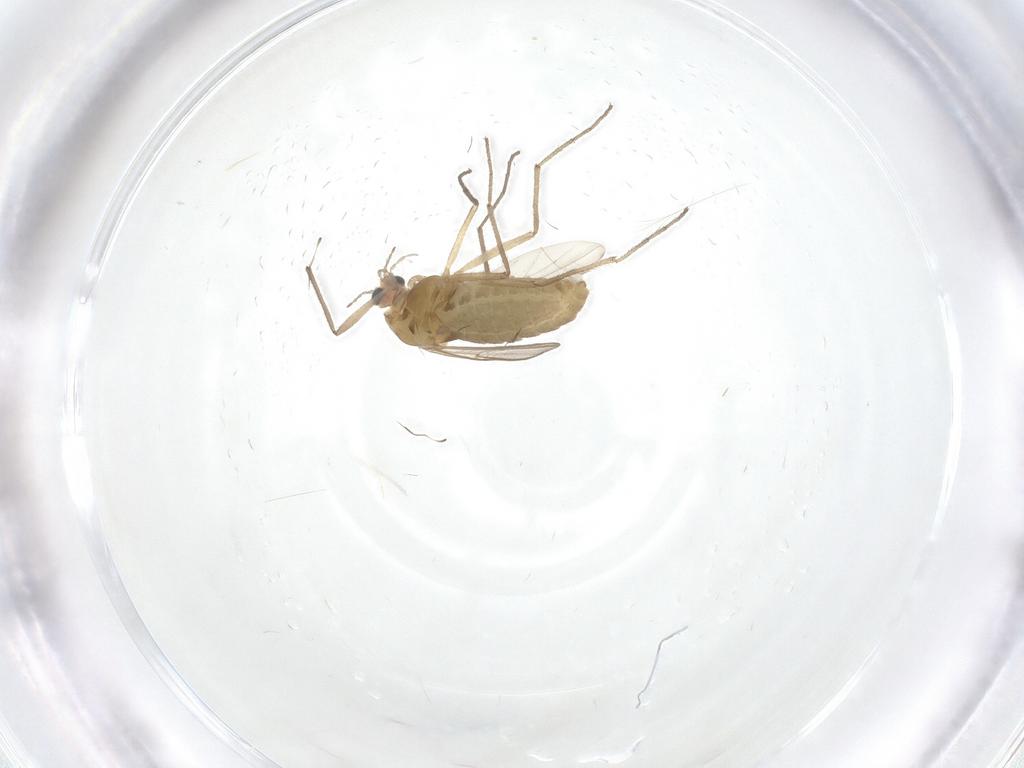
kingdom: Animalia
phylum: Arthropoda
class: Insecta
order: Diptera
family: Chironomidae
